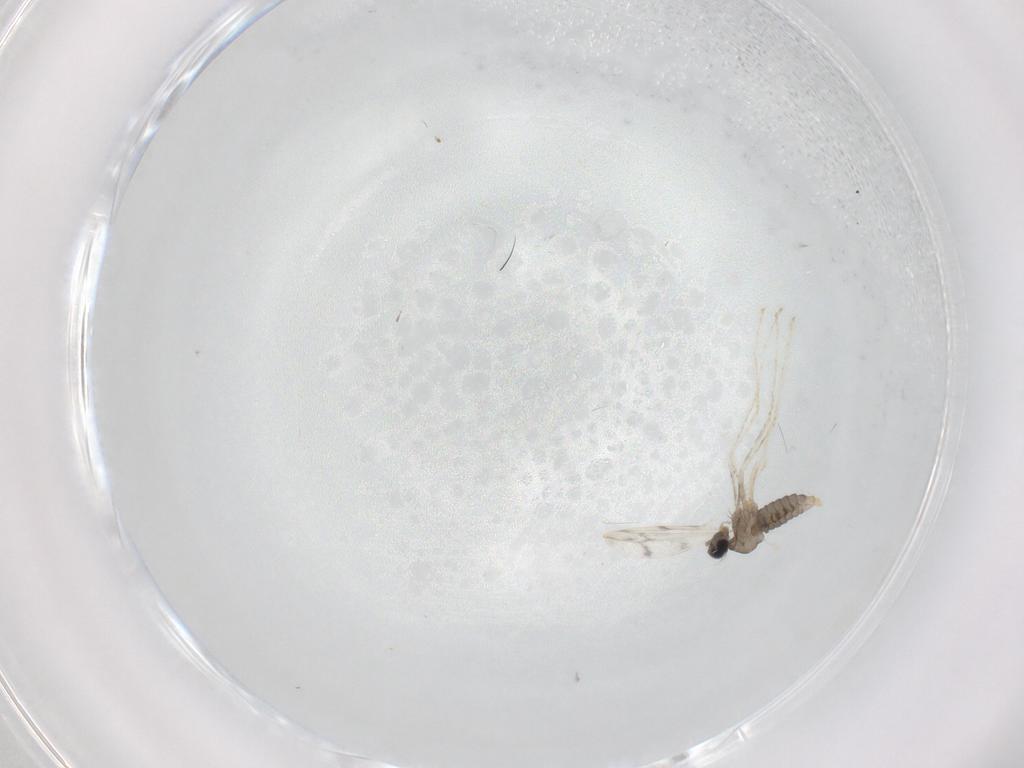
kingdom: Animalia
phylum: Arthropoda
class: Insecta
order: Diptera
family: Cecidomyiidae
